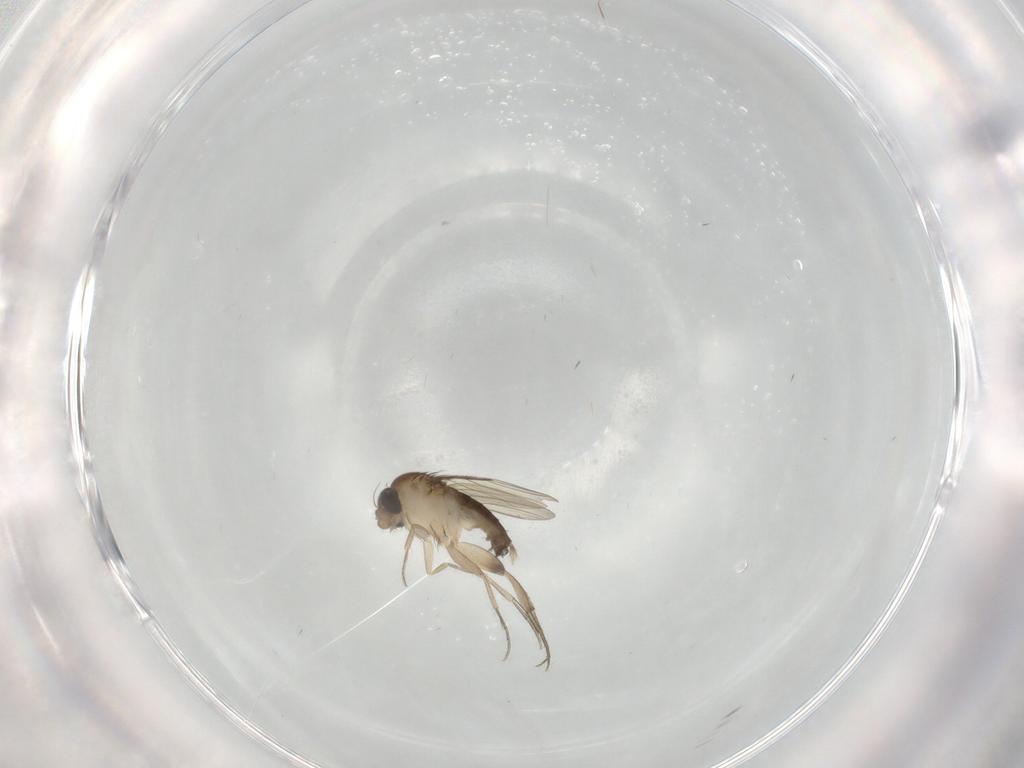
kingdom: Animalia
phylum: Arthropoda
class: Insecta
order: Diptera
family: Phoridae
